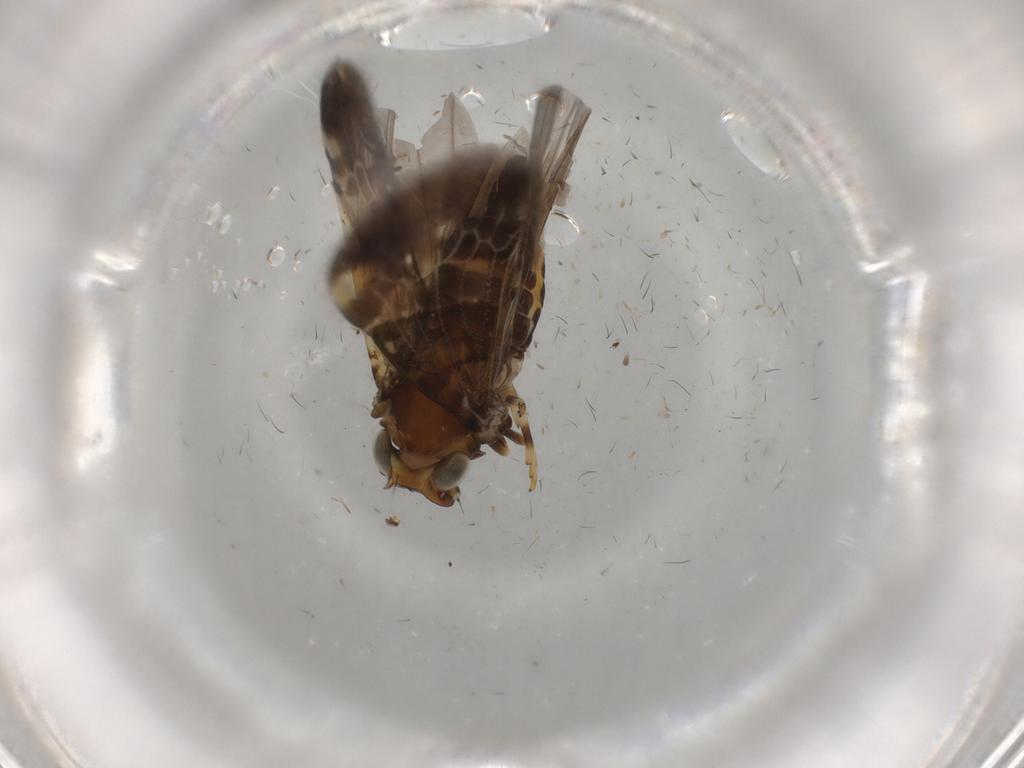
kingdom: Animalia
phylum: Arthropoda
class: Insecta
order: Hemiptera
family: Cixiidae
